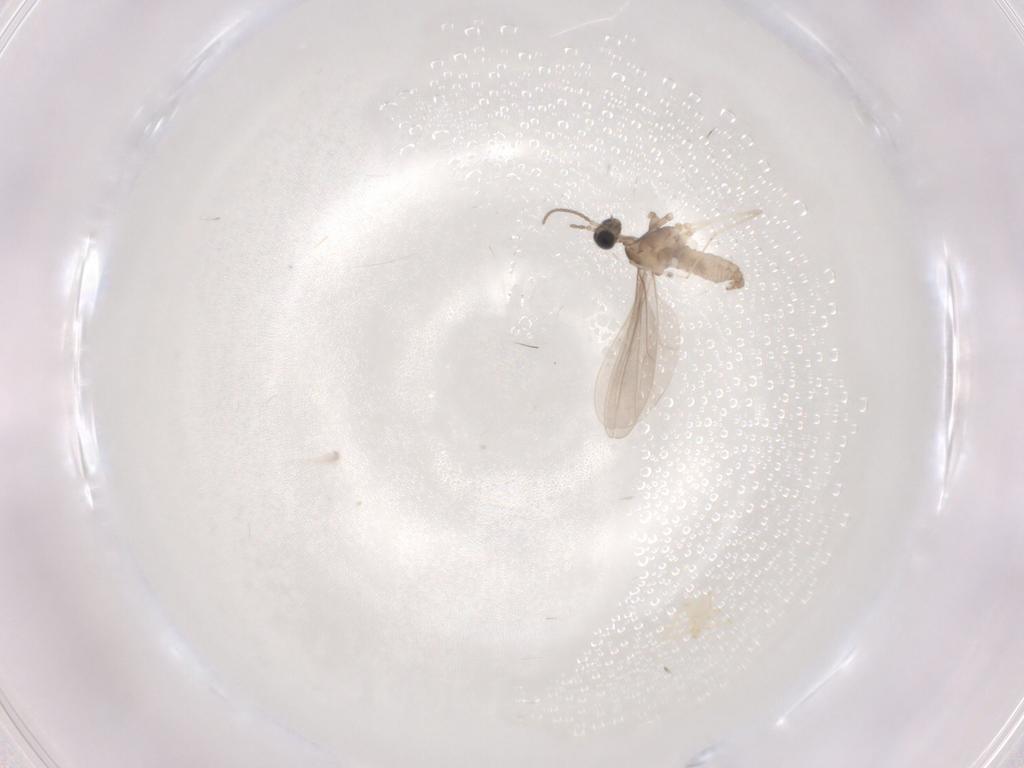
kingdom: Animalia
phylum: Arthropoda
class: Insecta
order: Diptera
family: Cecidomyiidae
